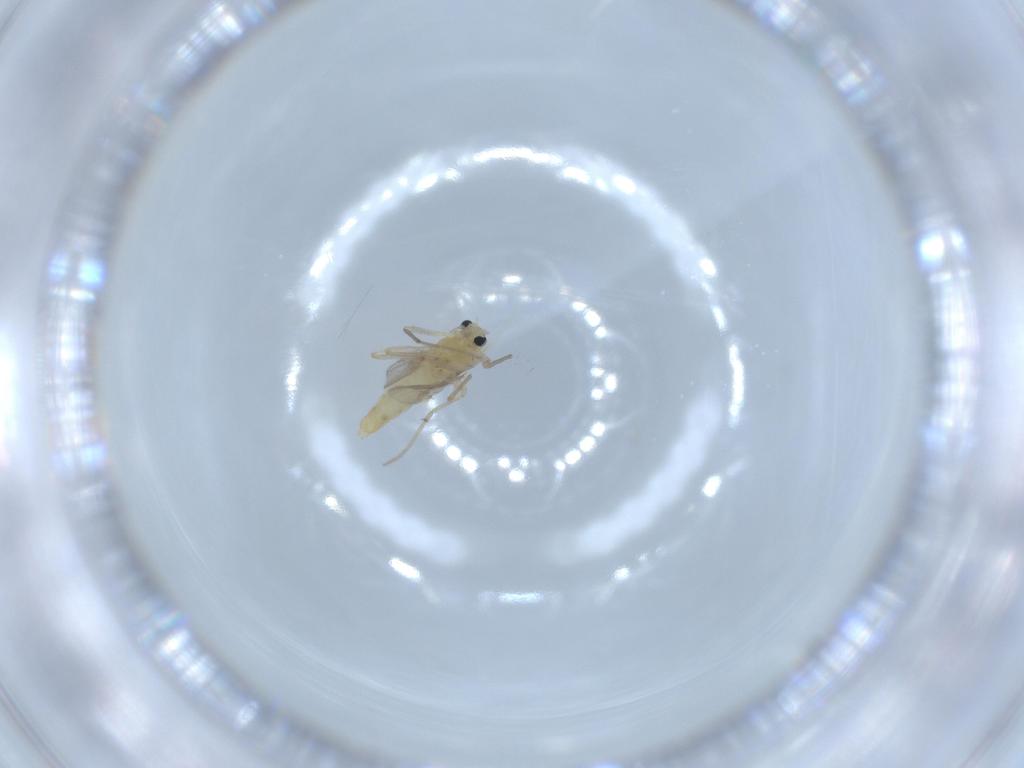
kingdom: Animalia
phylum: Arthropoda
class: Insecta
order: Diptera
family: Chironomidae
